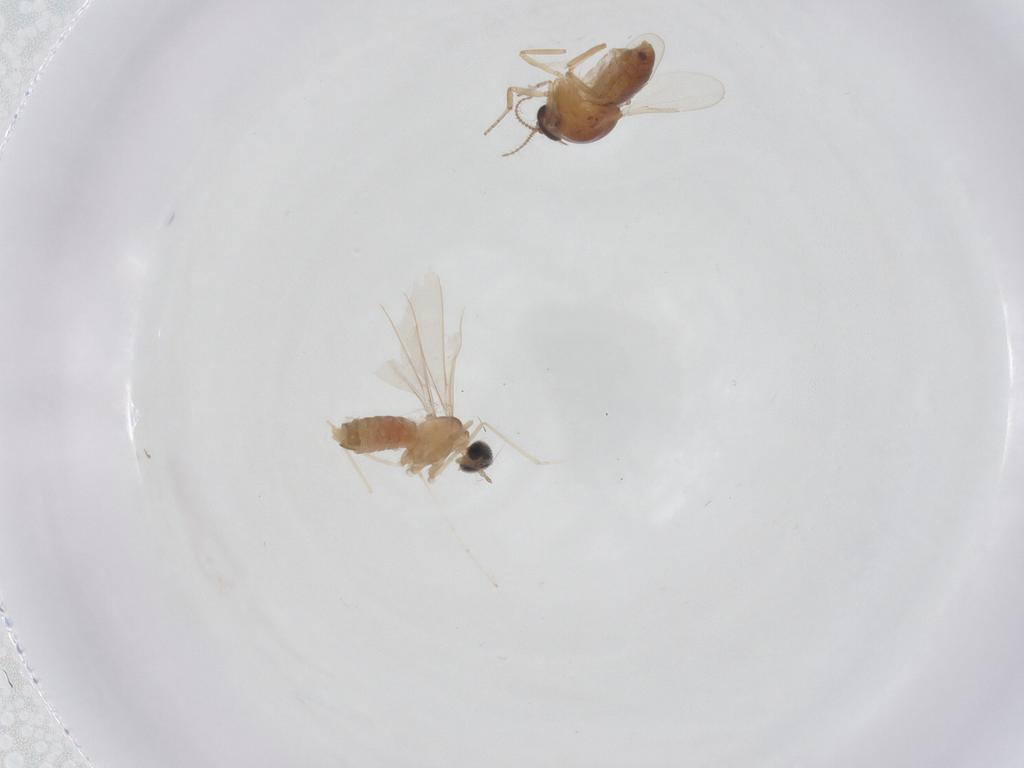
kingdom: Animalia
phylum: Arthropoda
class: Insecta
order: Diptera
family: Cecidomyiidae
